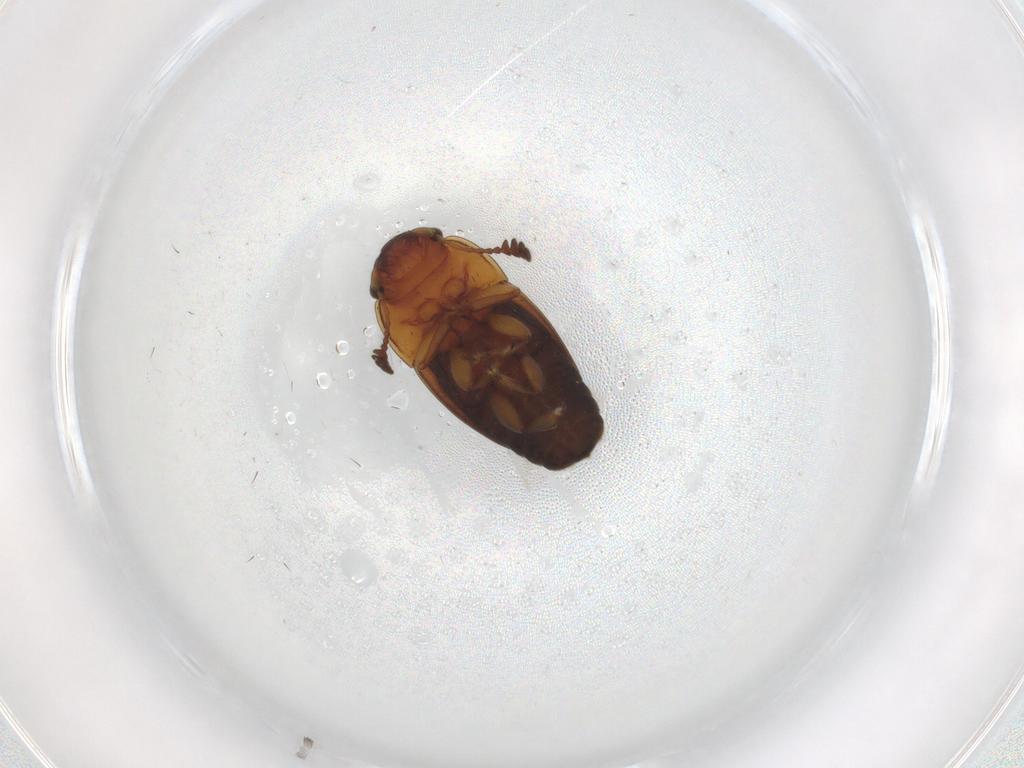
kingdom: Animalia
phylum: Arthropoda
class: Insecta
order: Coleoptera
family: Nitidulidae
